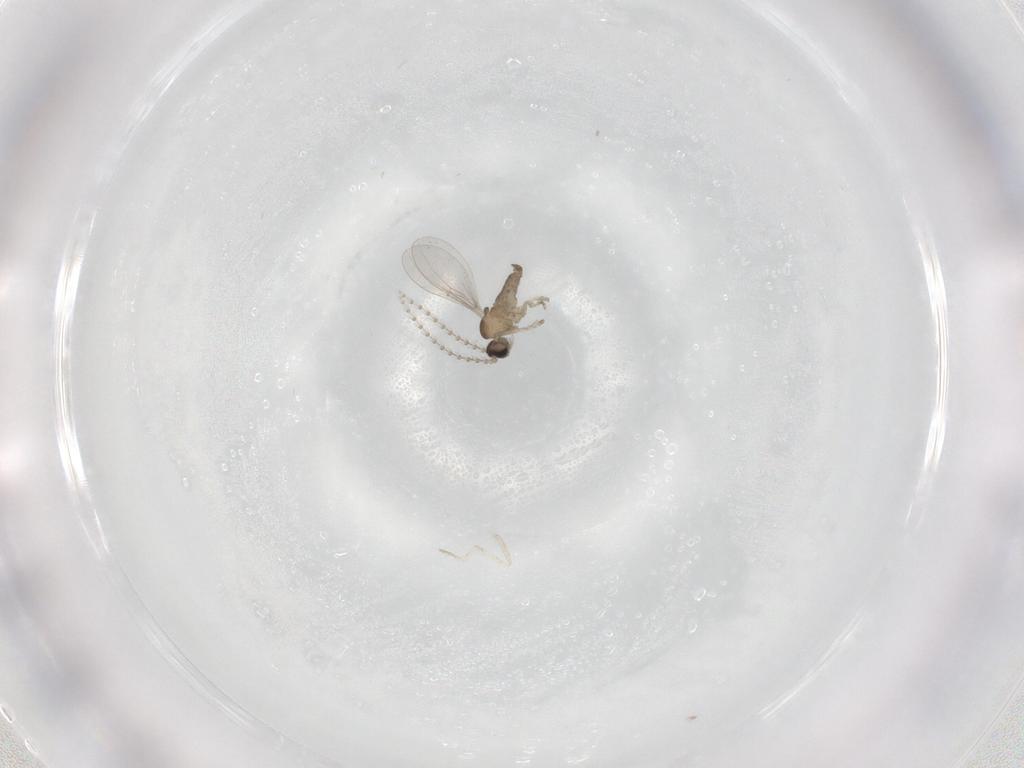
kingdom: Animalia
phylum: Arthropoda
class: Insecta
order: Diptera
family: Cecidomyiidae
